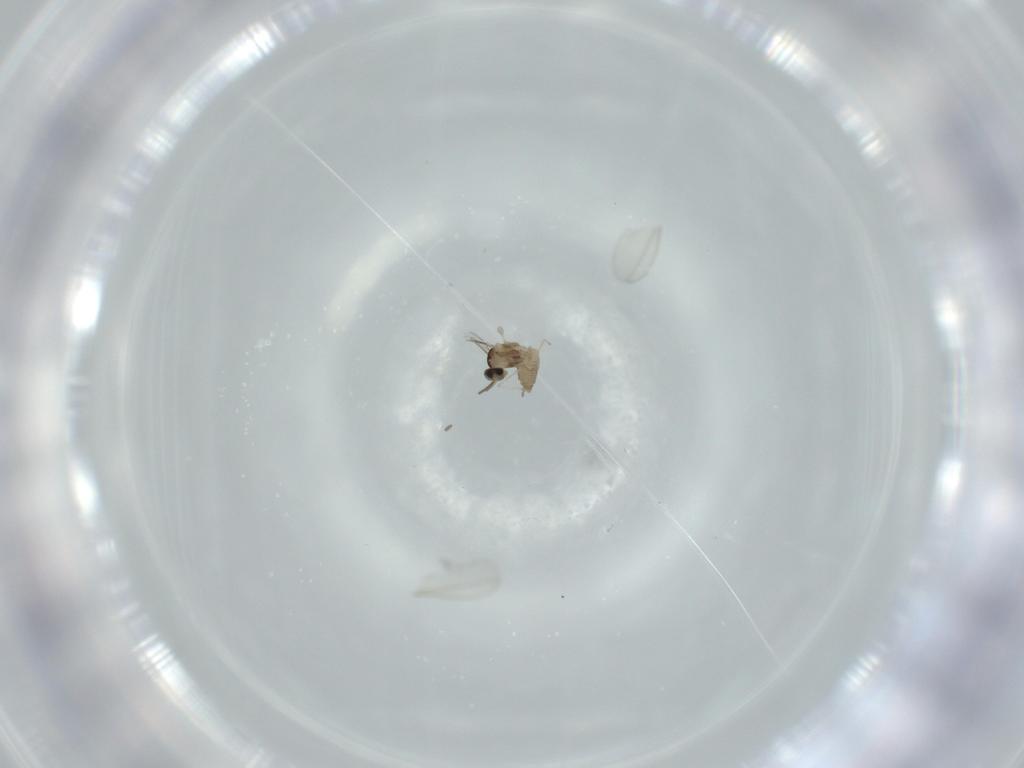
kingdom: Animalia
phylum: Arthropoda
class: Insecta
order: Diptera
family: Cecidomyiidae
